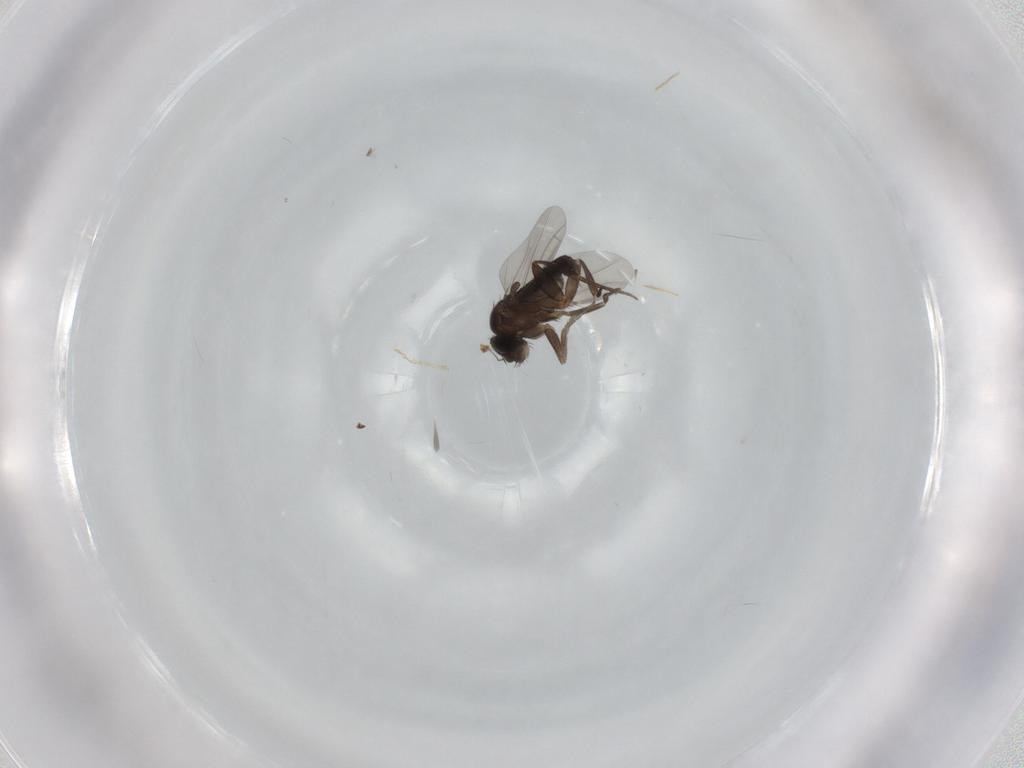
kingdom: Animalia
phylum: Arthropoda
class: Insecta
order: Diptera
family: Phoridae
